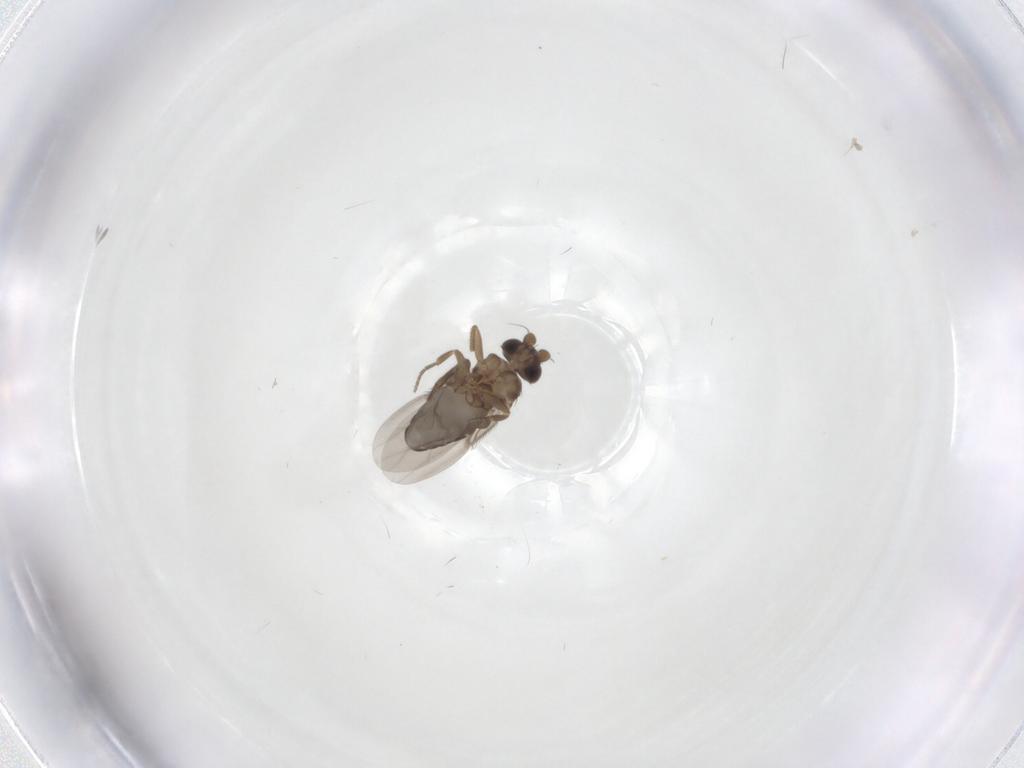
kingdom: Animalia
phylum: Arthropoda
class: Insecta
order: Diptera
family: Phoridae
